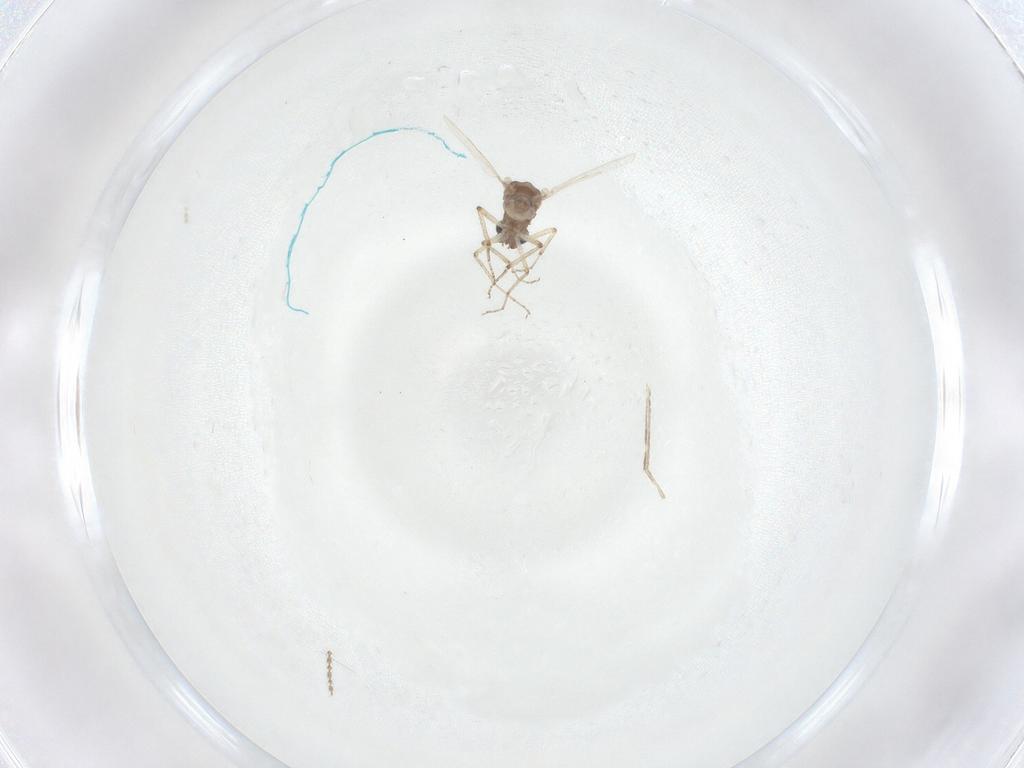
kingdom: Animalia
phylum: Arthropoda
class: Insecta
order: Diptera
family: Ceratopogonidae
